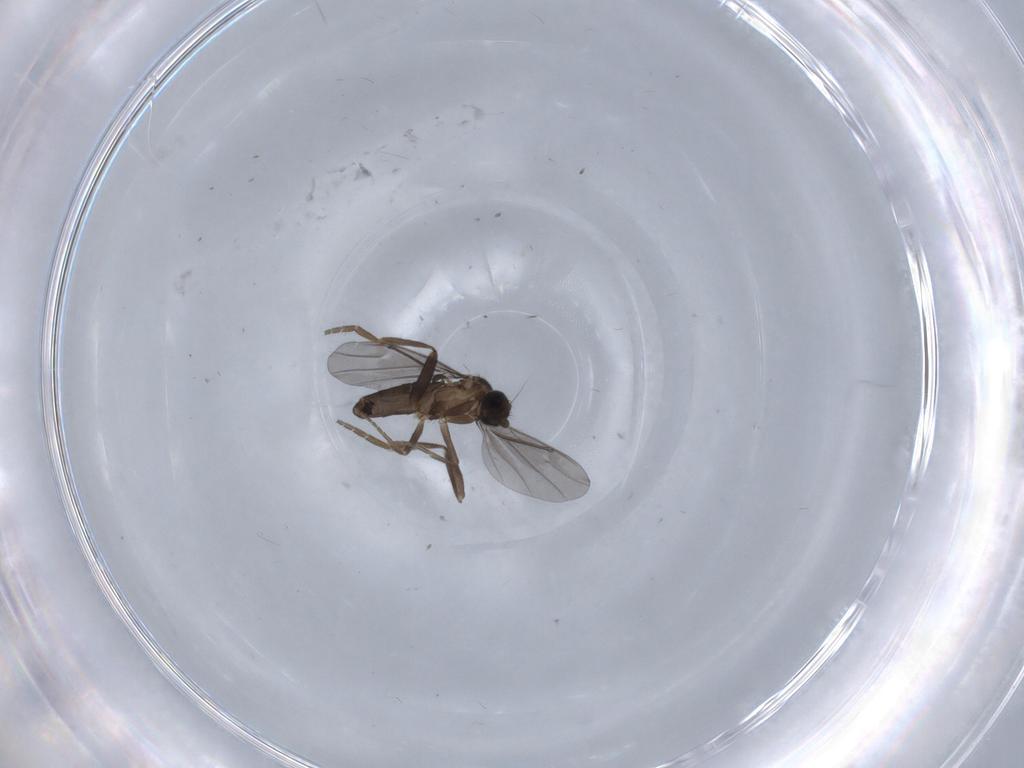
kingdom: Animalia
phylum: Arthropoda
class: Insecta
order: Diptera
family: Phoridae
